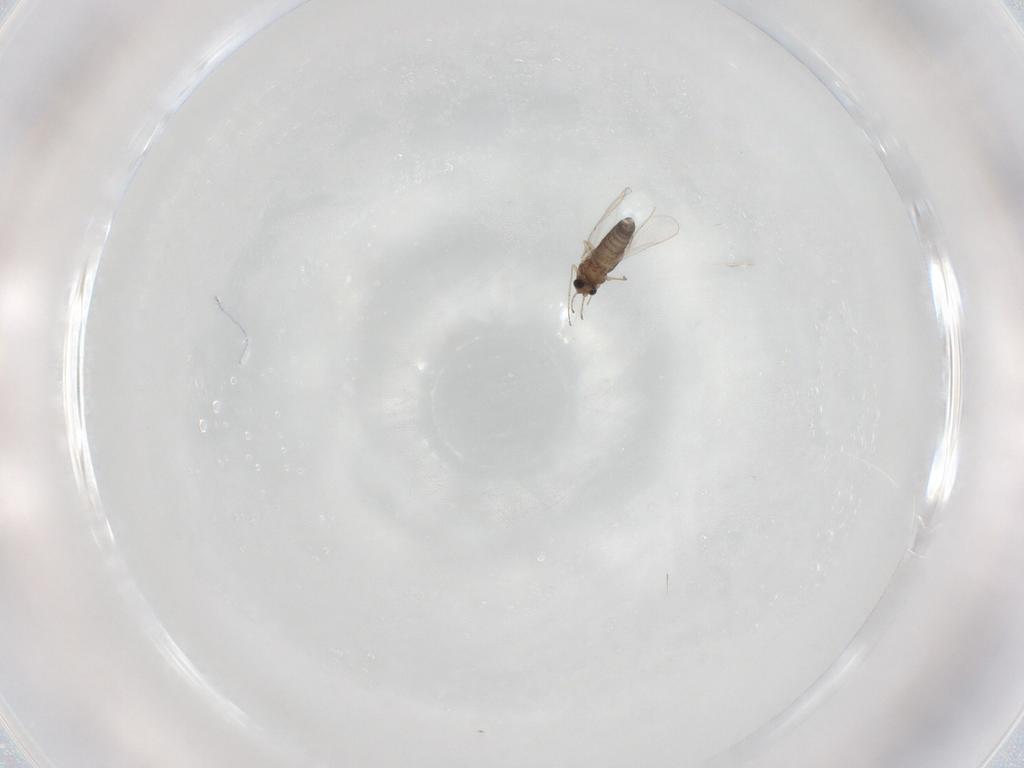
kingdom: Animalia
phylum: Arthropoda
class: Insecta
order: Diptera
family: Chironomidae
